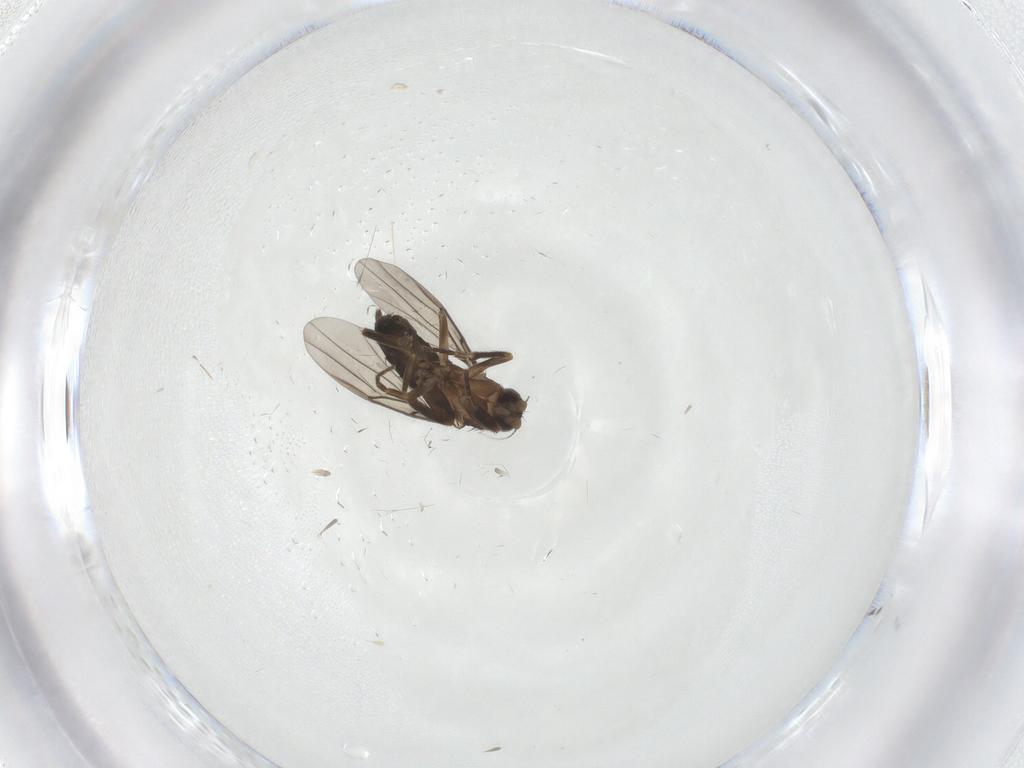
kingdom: Animalia
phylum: Arthropoda
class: Insecta
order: Diptera
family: Phoridae
